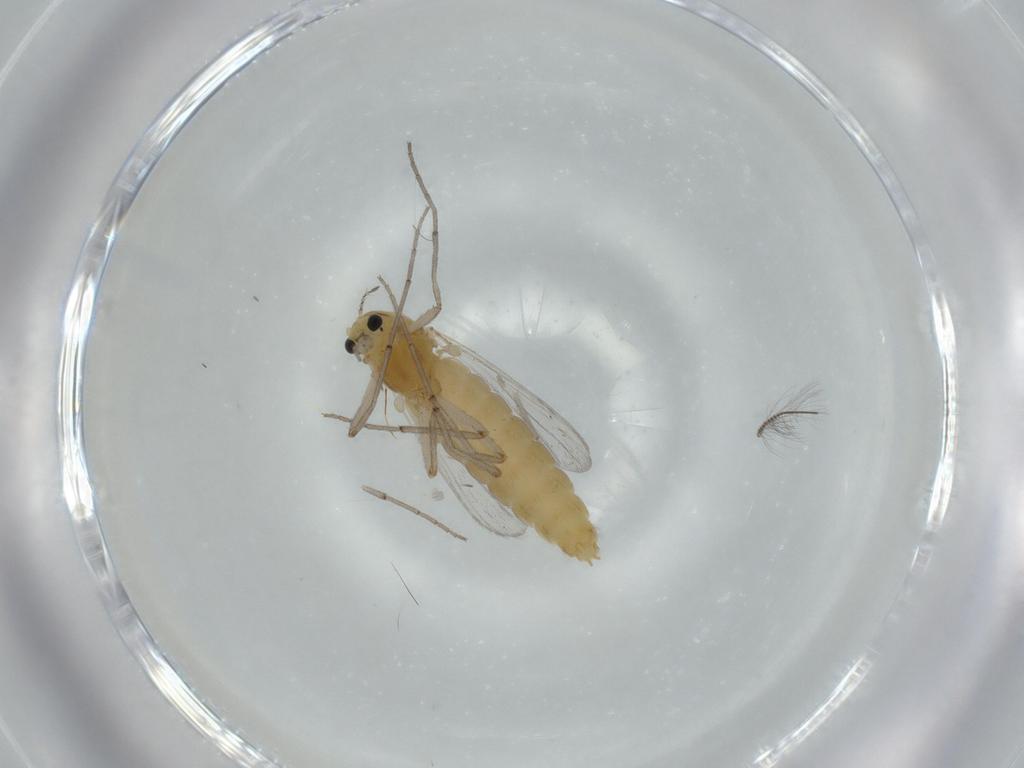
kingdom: Animalia
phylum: Arthropoda
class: Insecta
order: Diptera
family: Chironomidae
